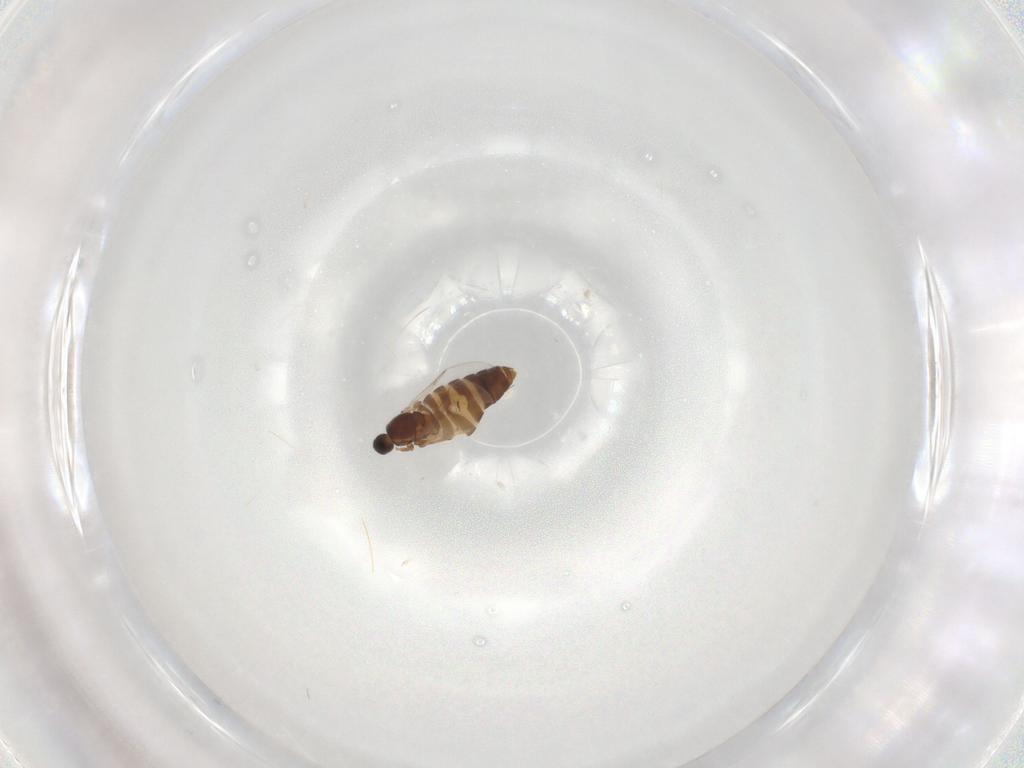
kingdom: Animalia
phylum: Arthropoda
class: Insecta
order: Diptera
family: Scatopsidae
